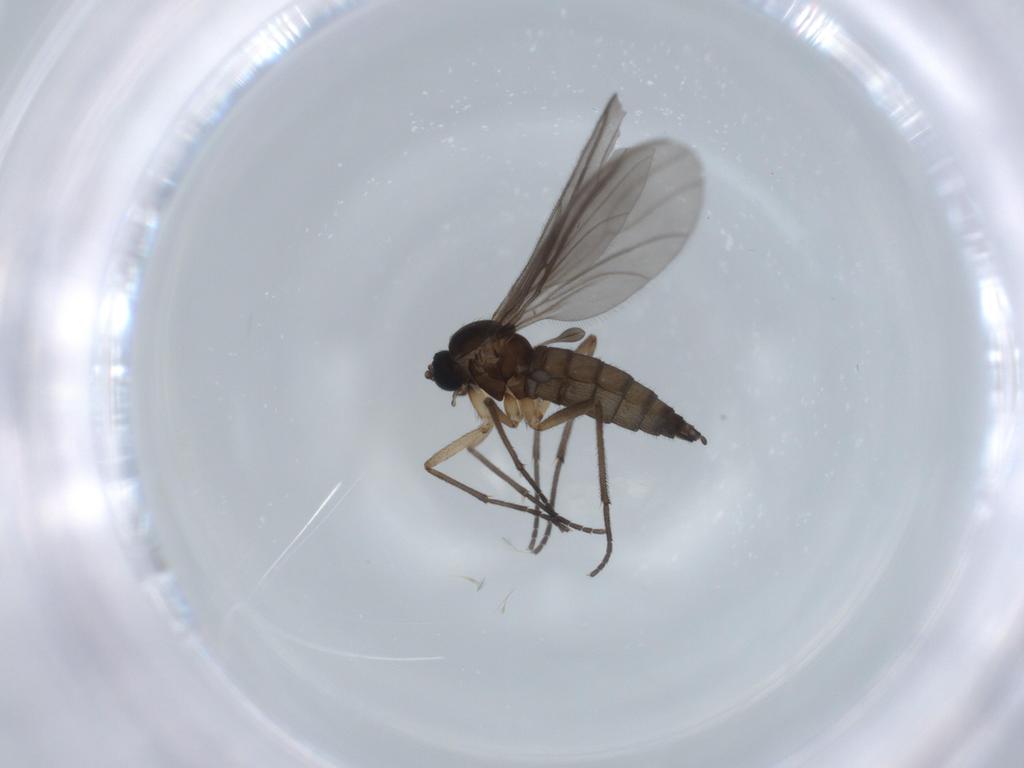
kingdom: Animalia
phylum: Arthropoda
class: Insecta
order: Diptera
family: Sciaridae
